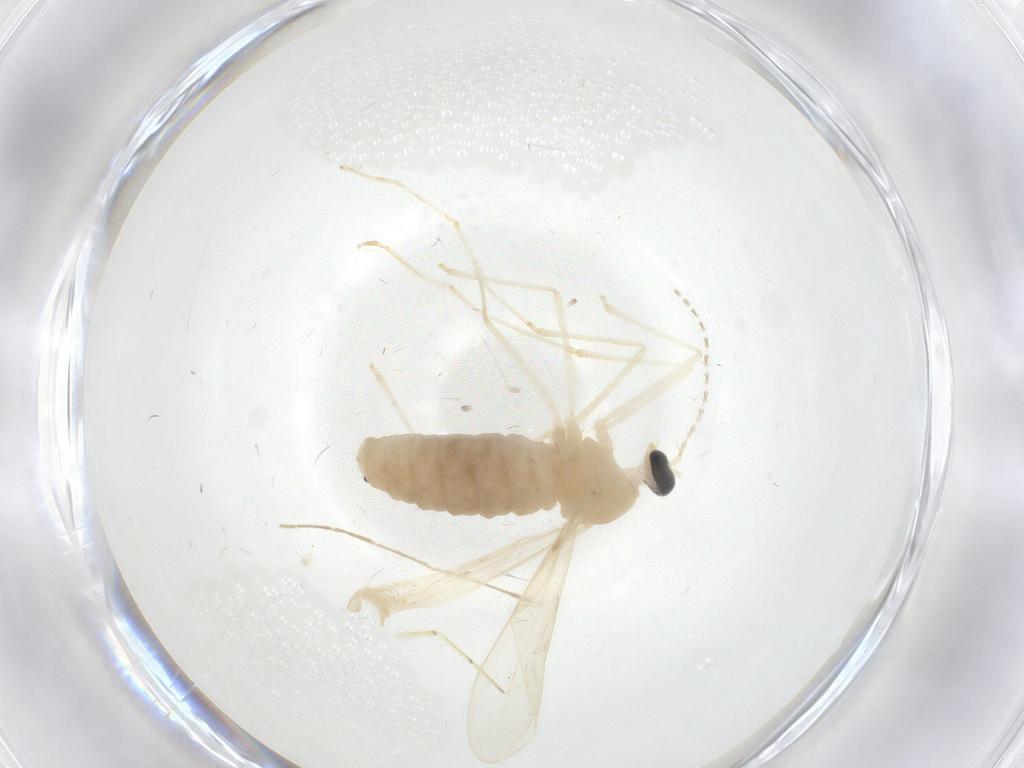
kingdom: Animalia
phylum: Arthropoda
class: Insecta
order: Diptera
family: Cecidomyiidae
